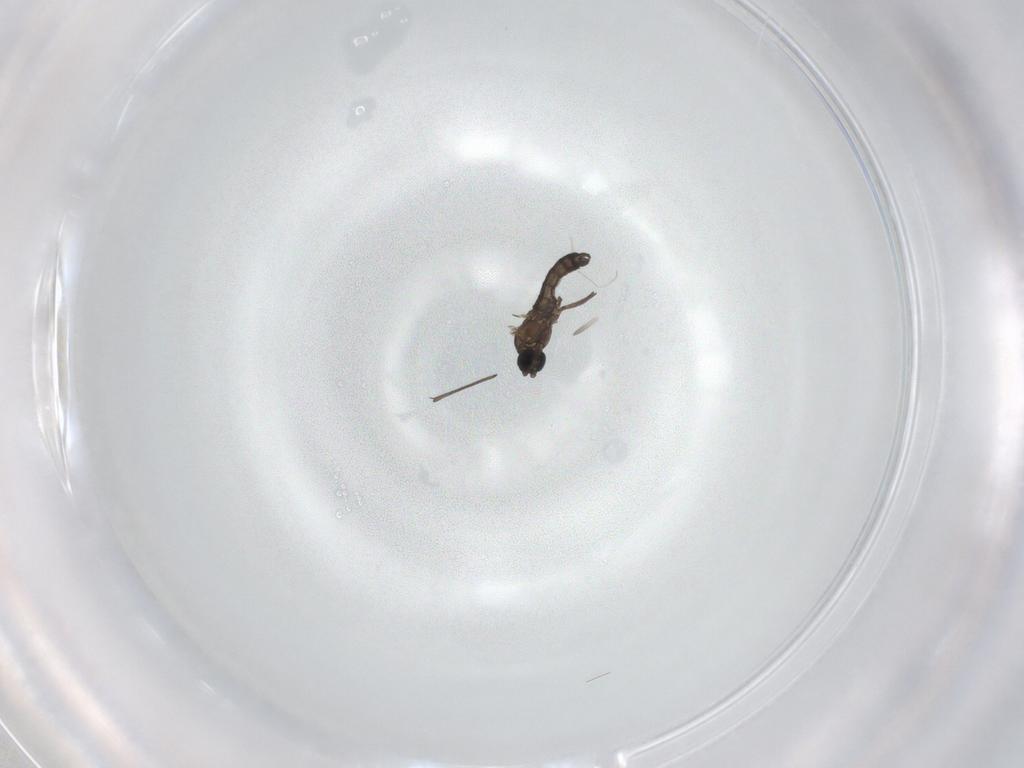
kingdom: Animalia
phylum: Arthropoda
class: Insecta
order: Diptera
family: Sciaridae
